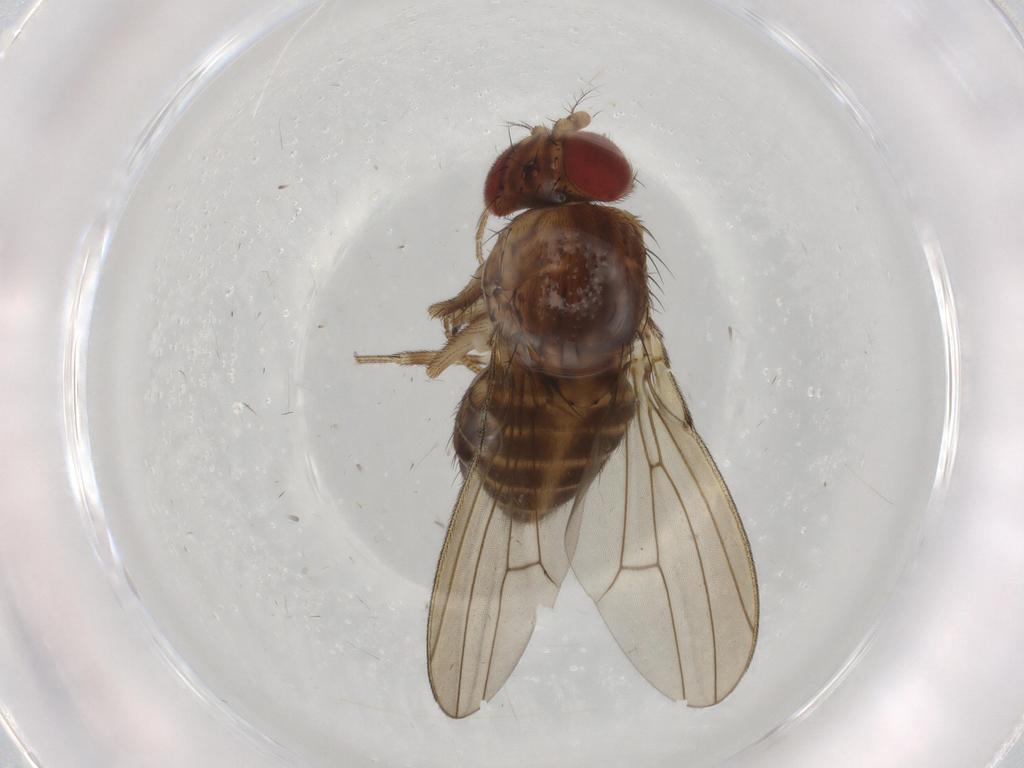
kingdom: Animalia
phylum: Arthropoda
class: Insecta
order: Diptera
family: Drosophilidae
